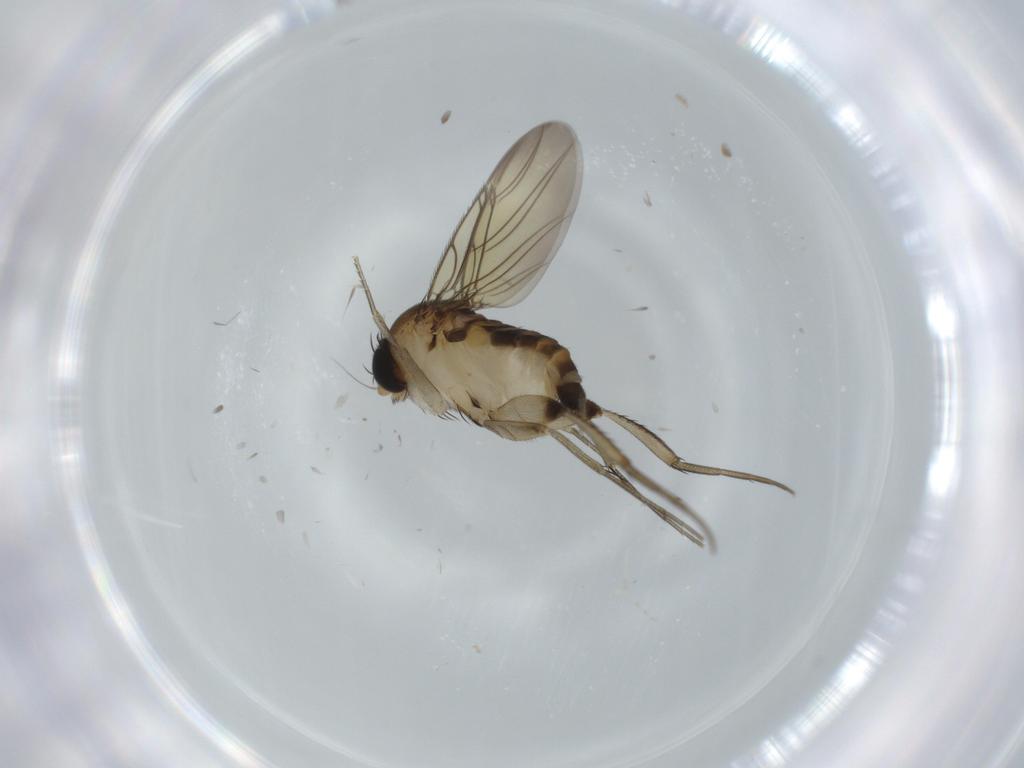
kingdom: Animalia
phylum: Arthropoda
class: Insecta
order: Diptera
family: Phoridae
